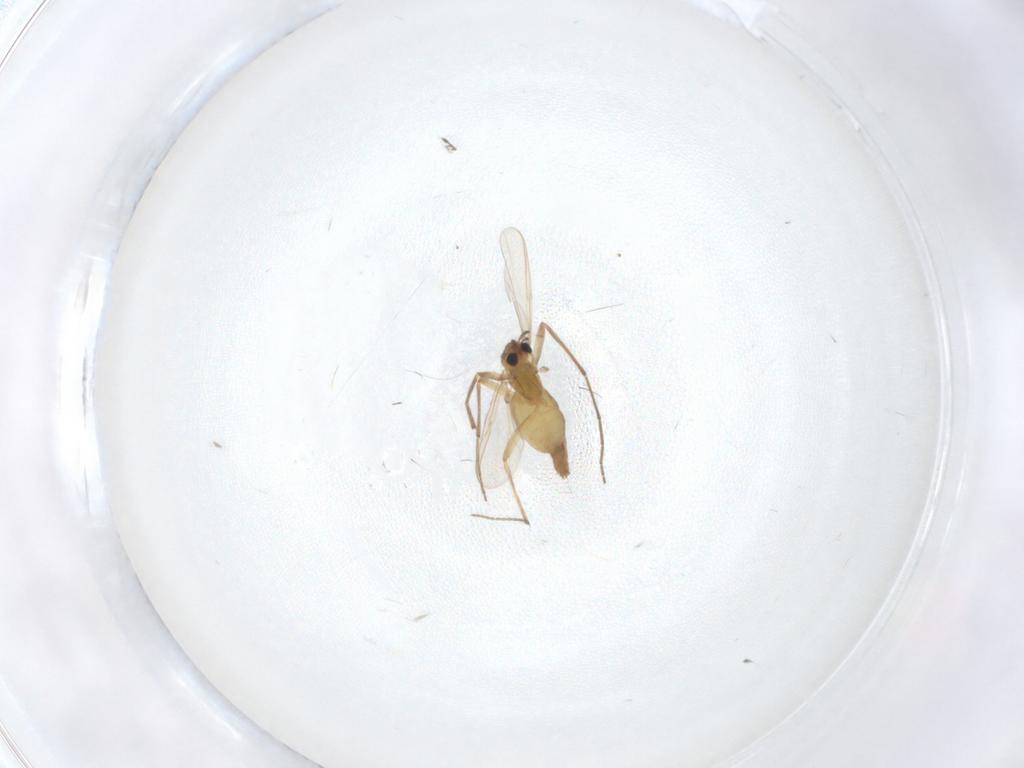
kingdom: Animalia
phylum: Arthropoda
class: Insecta
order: Diptera
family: Chironomidae
